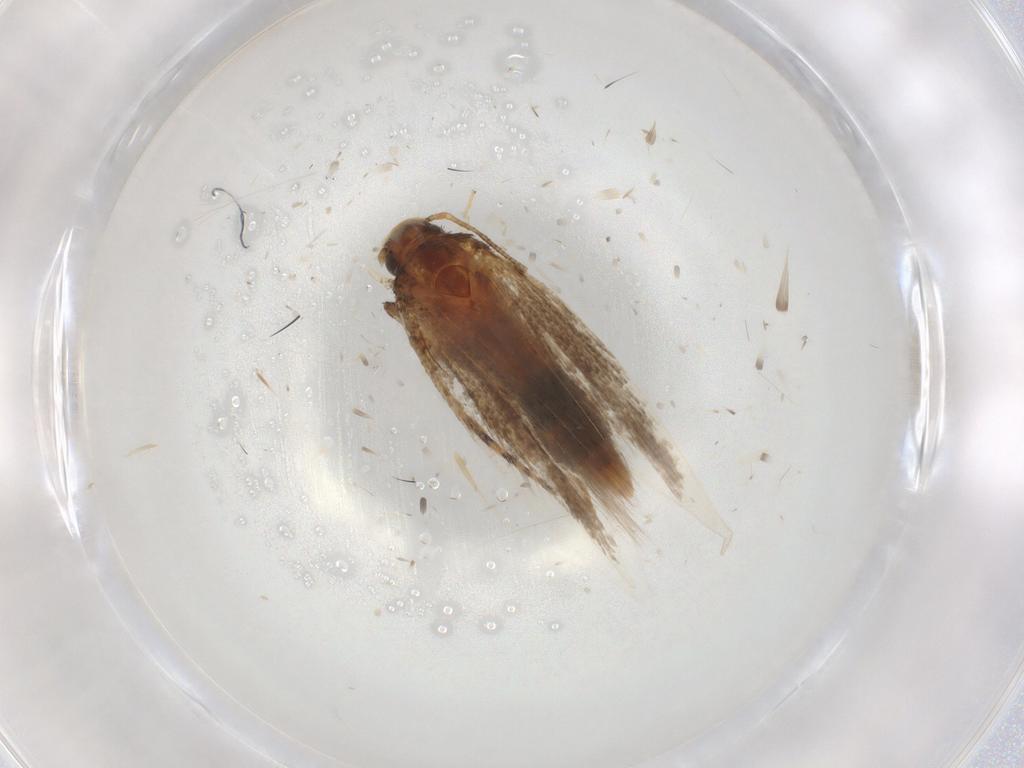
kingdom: Animalia
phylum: Arthropoda
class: Insecta
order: Lepidoptera
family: Gelechiidae
